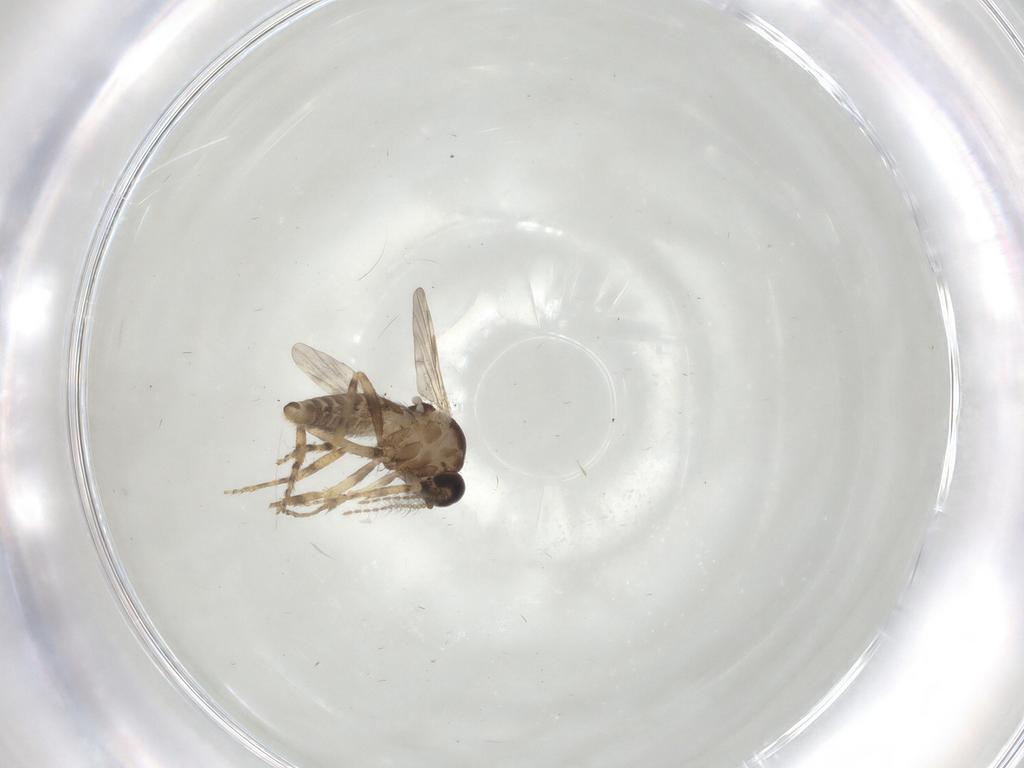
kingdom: Animalia
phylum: Arthropoda
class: Insecta
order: Diptera
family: Ceratopogonidae
